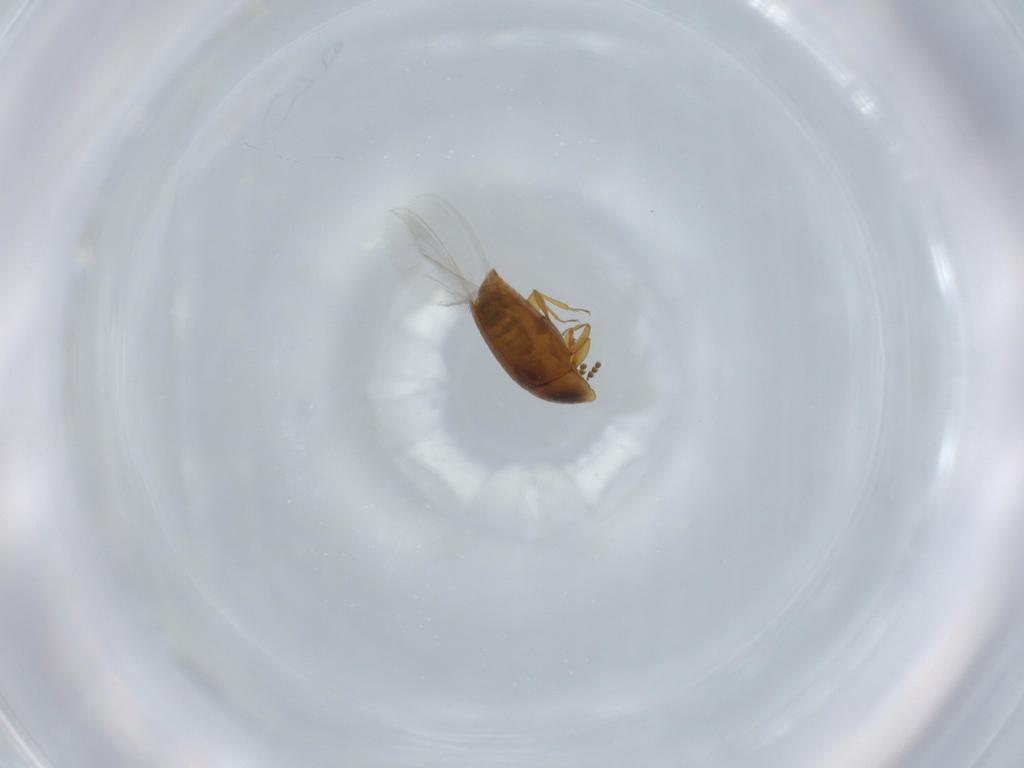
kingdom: Animalia
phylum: Arthropoda
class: Insecta
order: Coleoptera
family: Corylophidae
